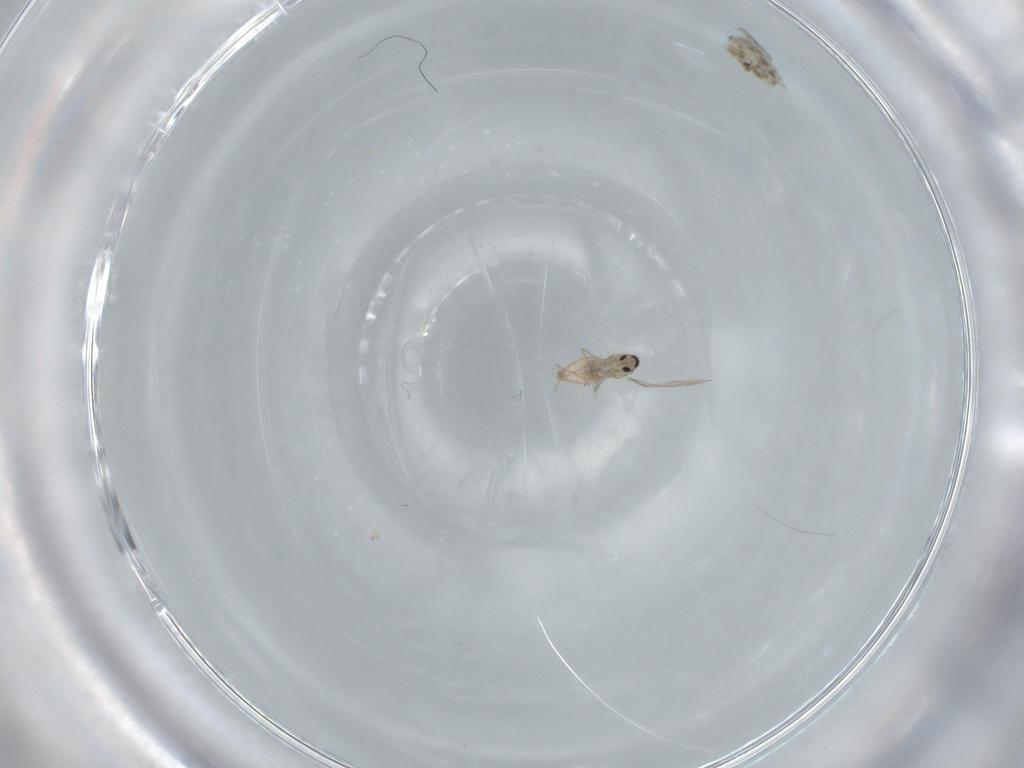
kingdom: Animalia
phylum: Arthropoda
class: Insecta
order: Diptera
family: Cecidomyiidae
